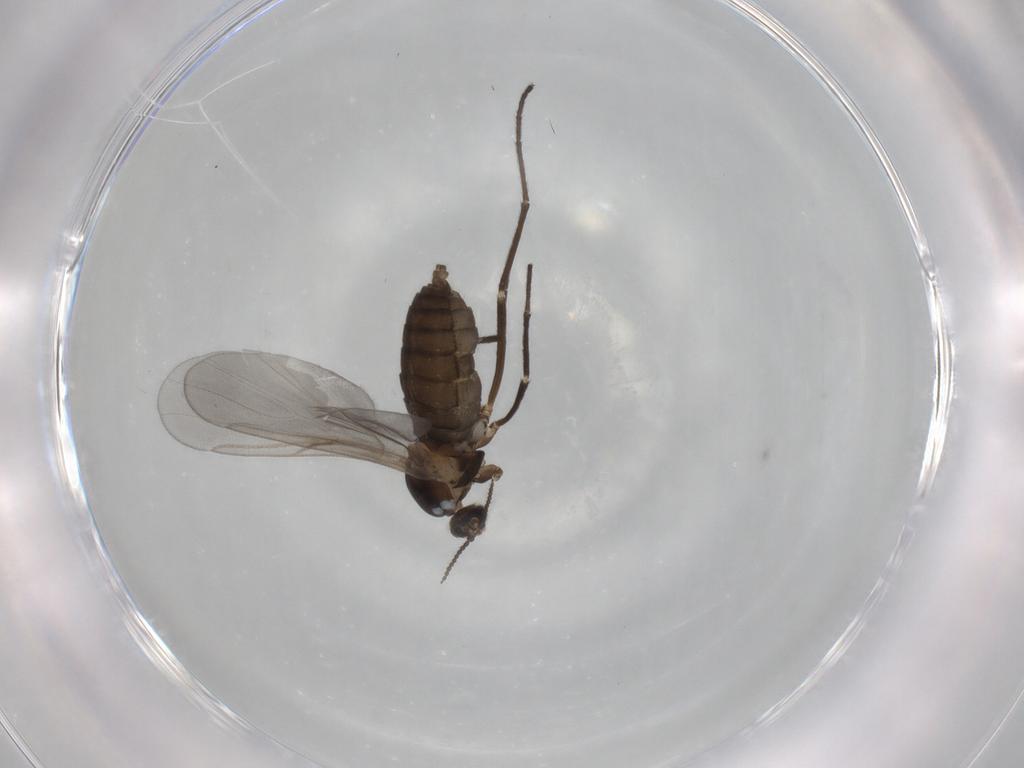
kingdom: Animalia
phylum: Arthropoda
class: Insecta
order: Diptera
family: Cecidomyiidae
